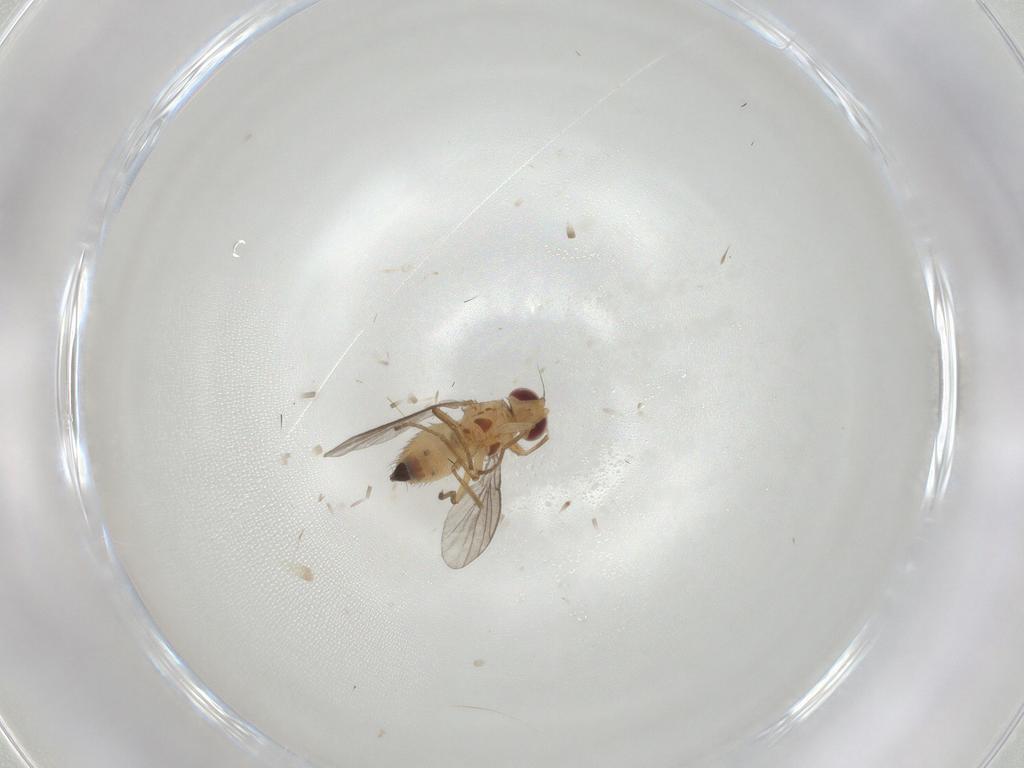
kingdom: Animalia
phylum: Arthropoda
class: Insecta
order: Diptera
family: Agromyzidae
